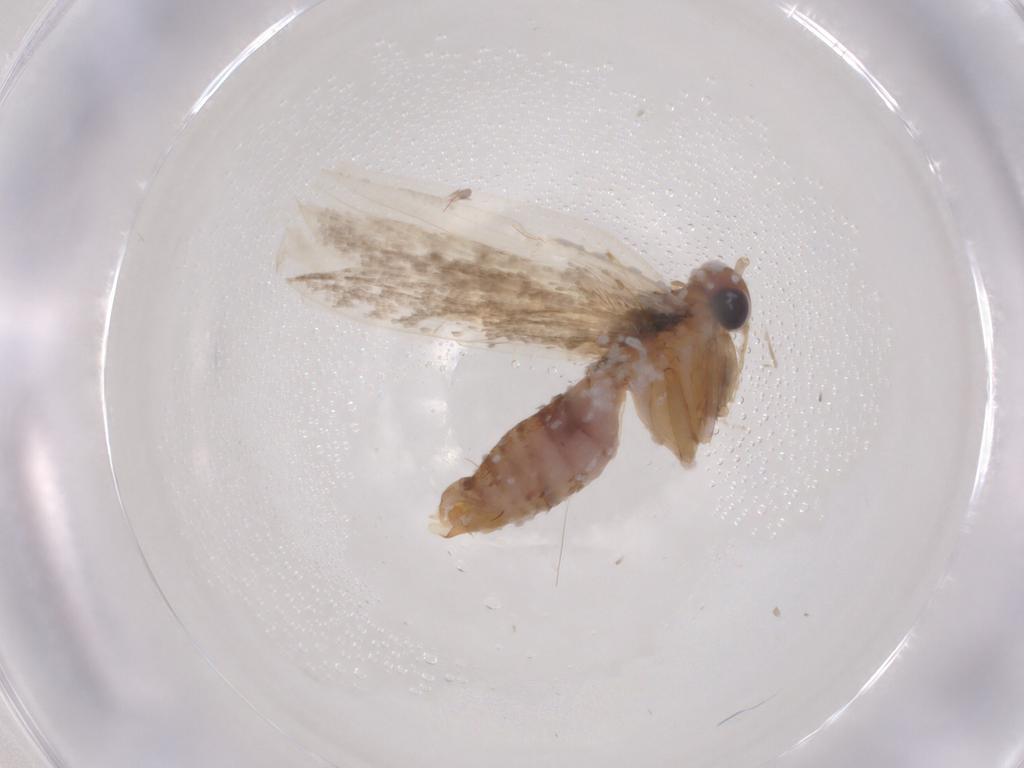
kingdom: Animalia
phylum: Arthropoda
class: Insecta
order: Lepidoptera
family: Oecophoridae
